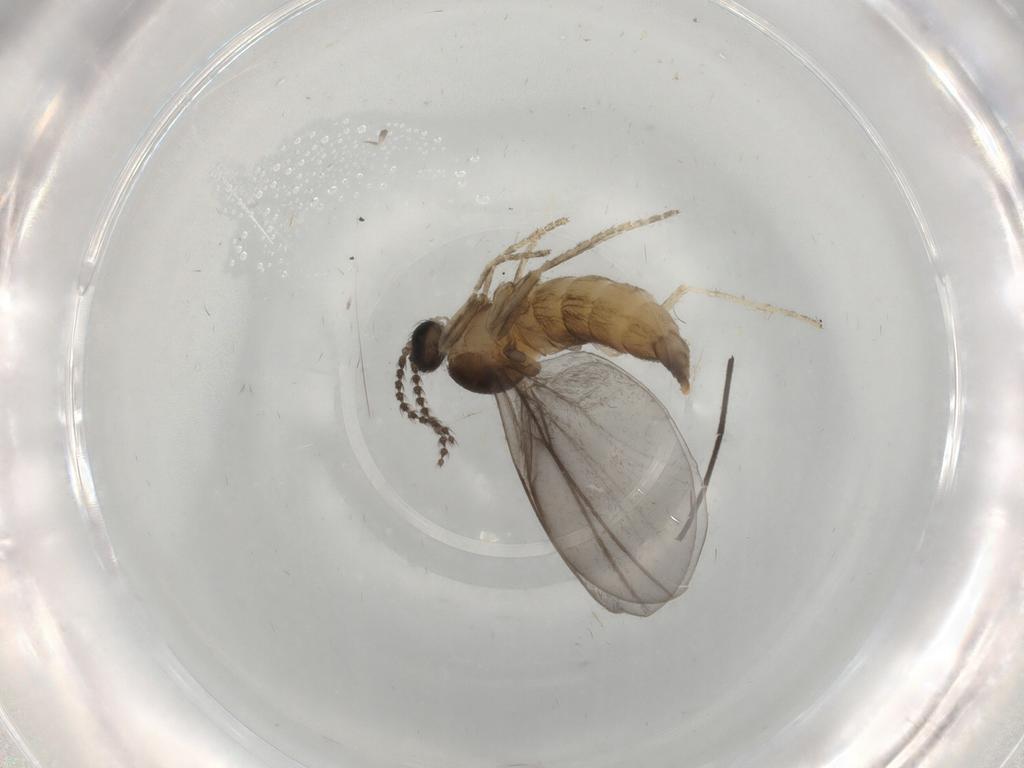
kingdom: Animalia
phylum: Arthropoda
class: Insecta
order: Diptera
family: Cecidomyiidae
